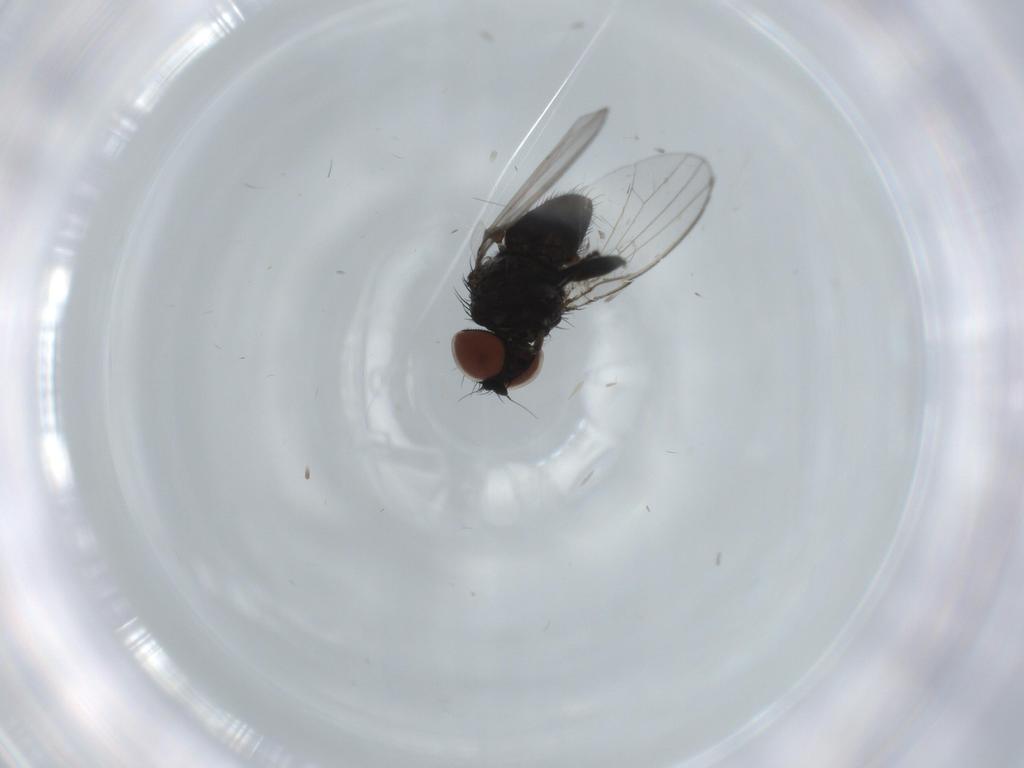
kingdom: Animalia
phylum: Arthropoda
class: Insecta
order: Diptera
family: Milichiidae
